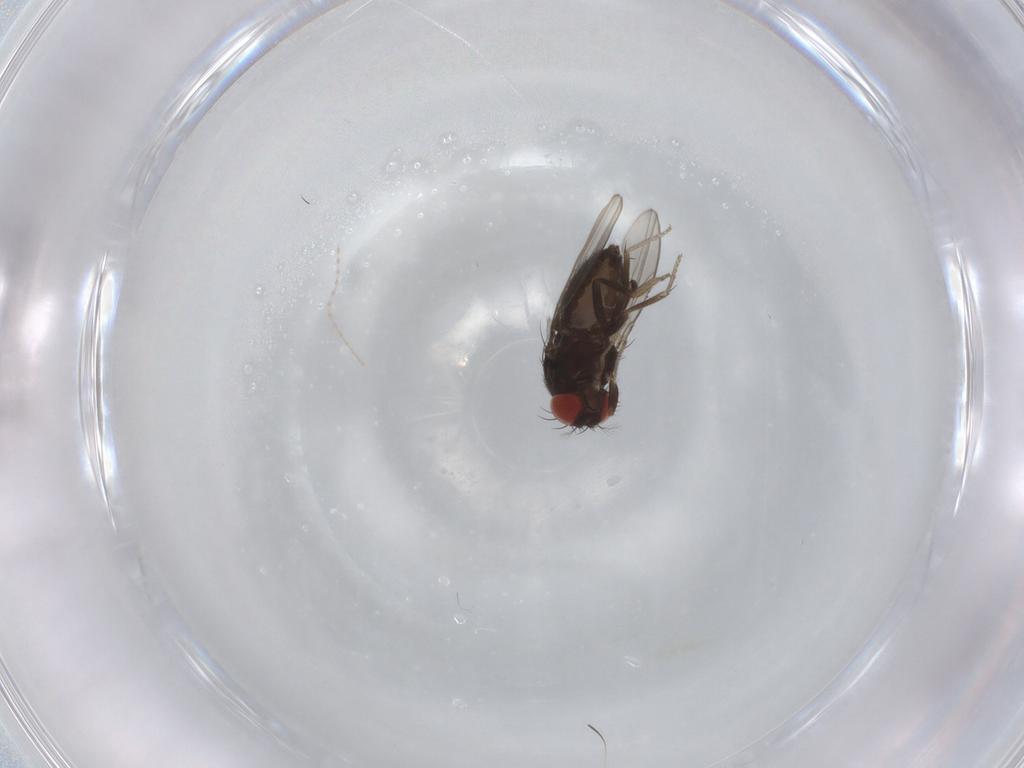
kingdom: Animalia
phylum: Arthropoda
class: Insecta
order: Diptera
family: Drosophilidae
